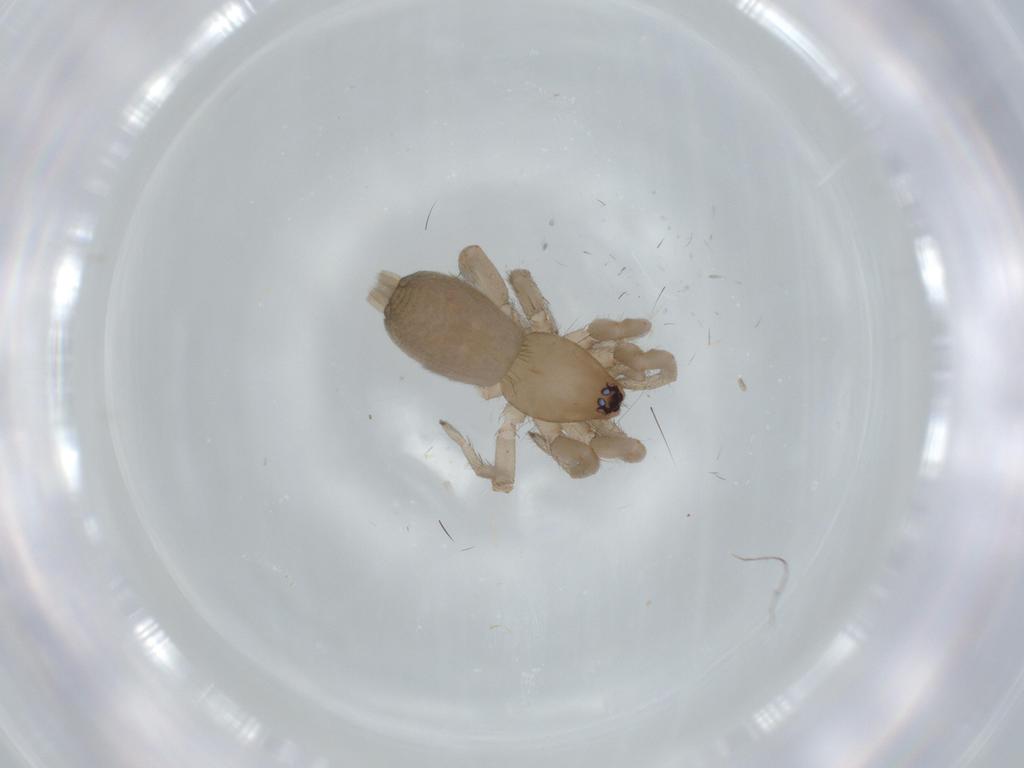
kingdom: Animalia
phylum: Arthropoda
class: Arachnida
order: Araneae
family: Gnaphosidae
